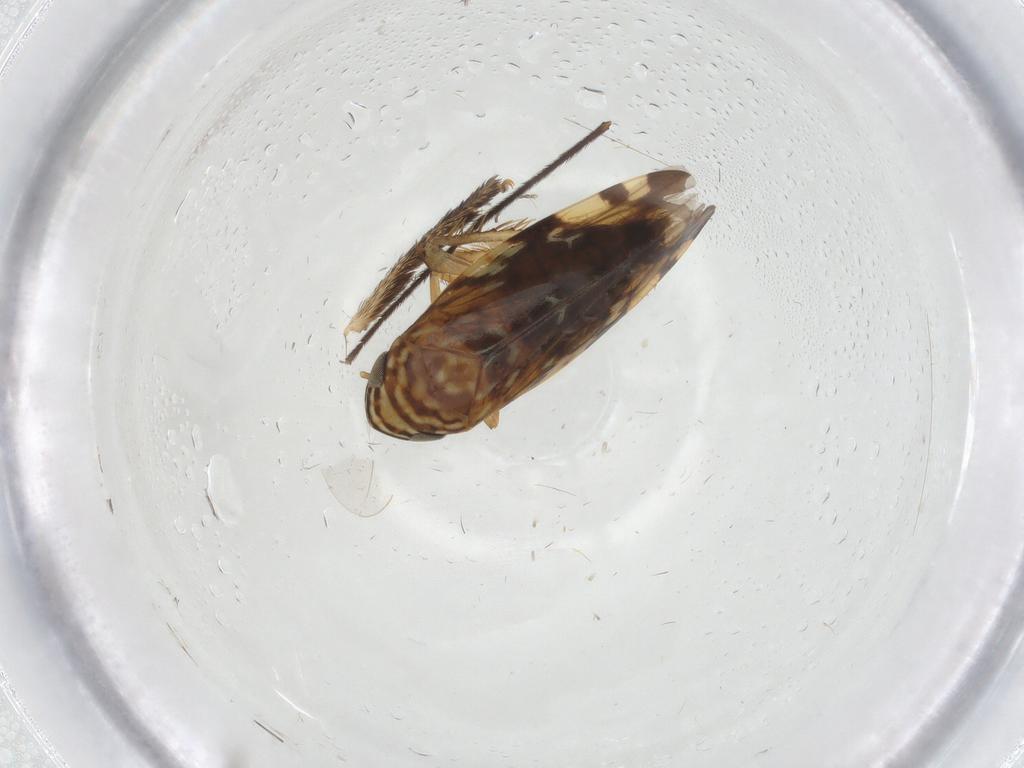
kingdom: Animalia
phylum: Arthropoda
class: Insecta
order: Hemiptera
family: Cicadellidae
